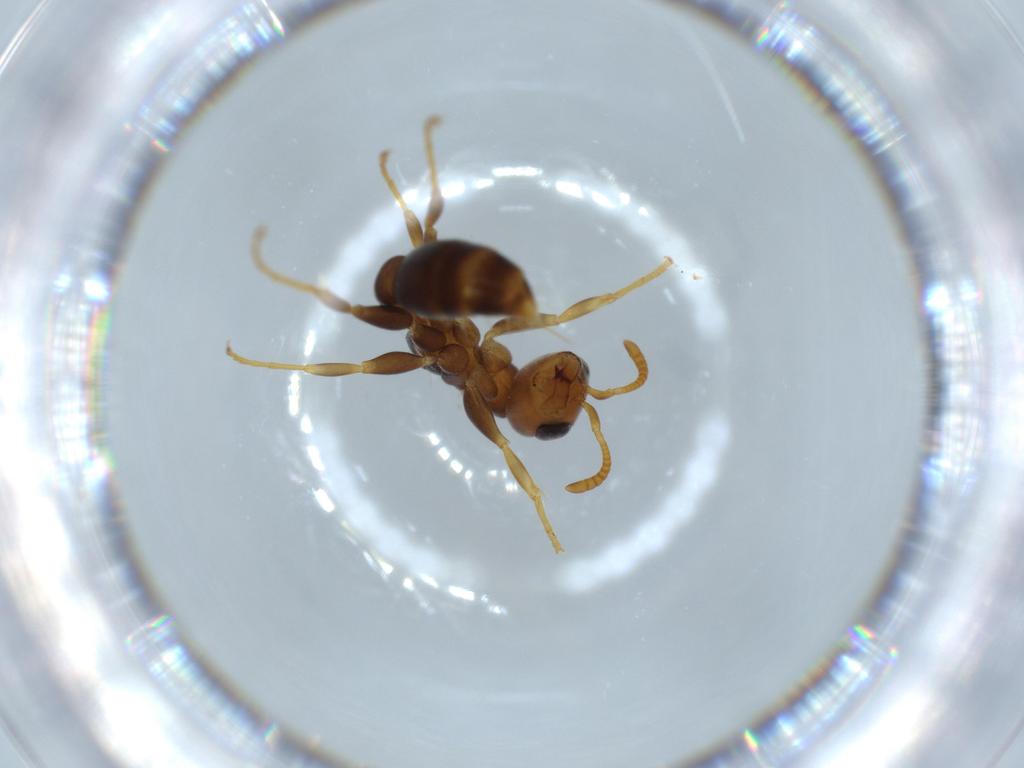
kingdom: Animalia
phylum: Arthropoda
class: Insecta
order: Hymenoptera
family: Formicidae
